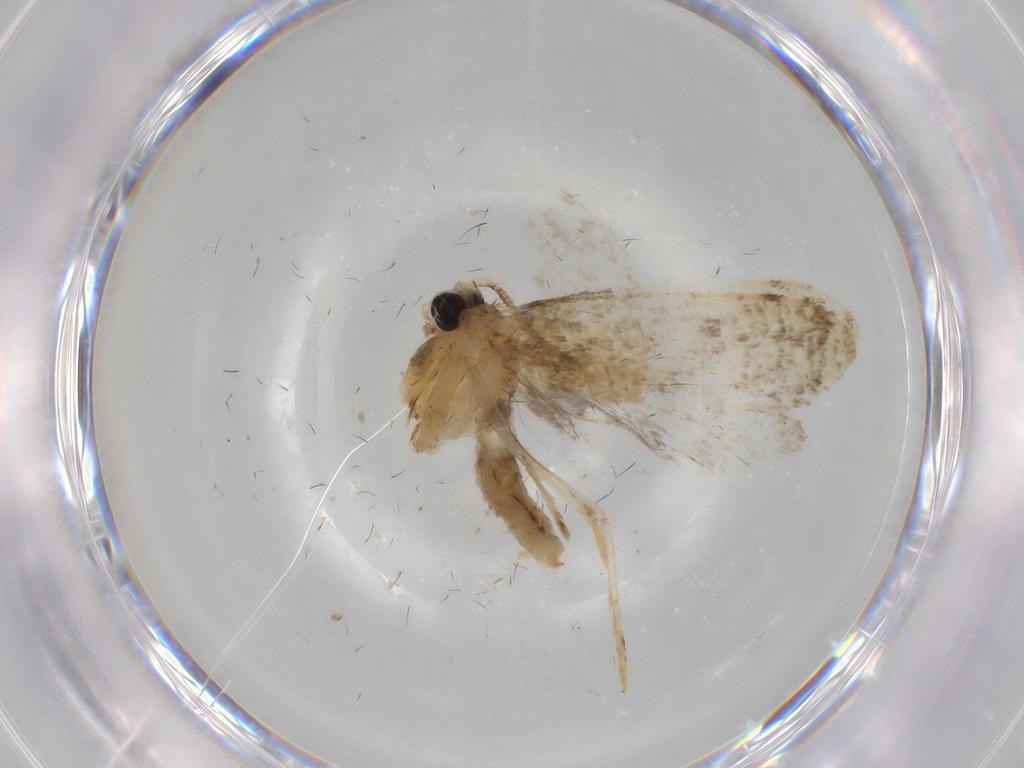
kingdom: Animalia
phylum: Arthropoda
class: Insecta
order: Lepidoptera
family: Tineidae
